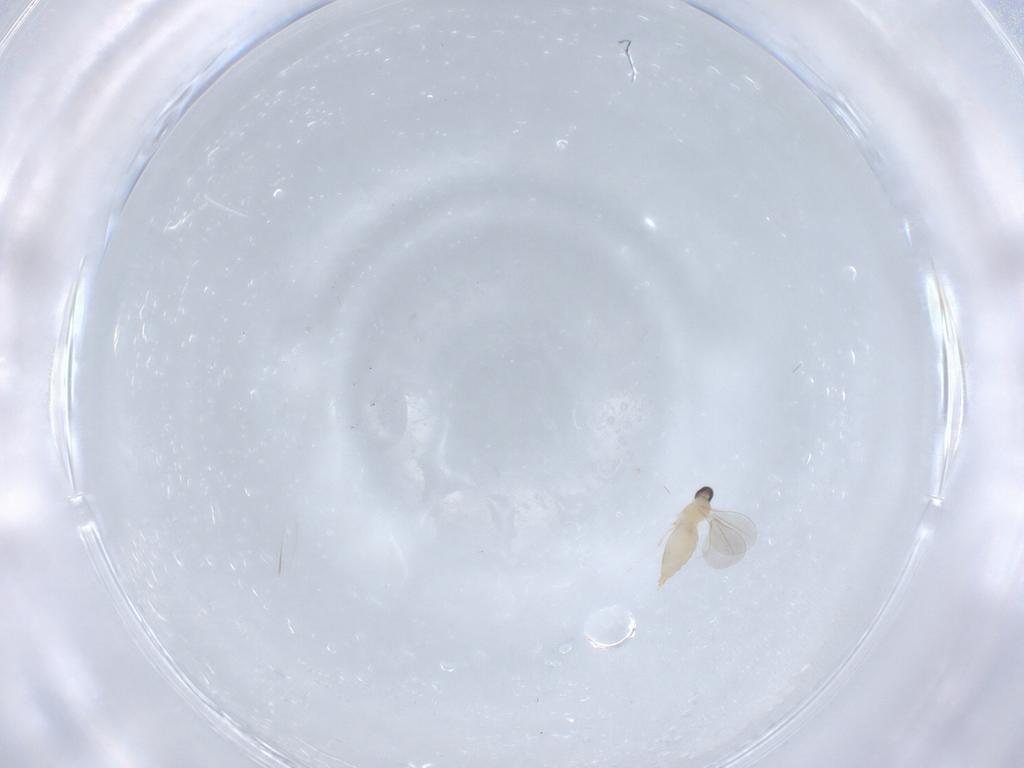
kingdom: Animalia
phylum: Arthropoda
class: Insecta
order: Diptera
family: Cecidomyiidae
